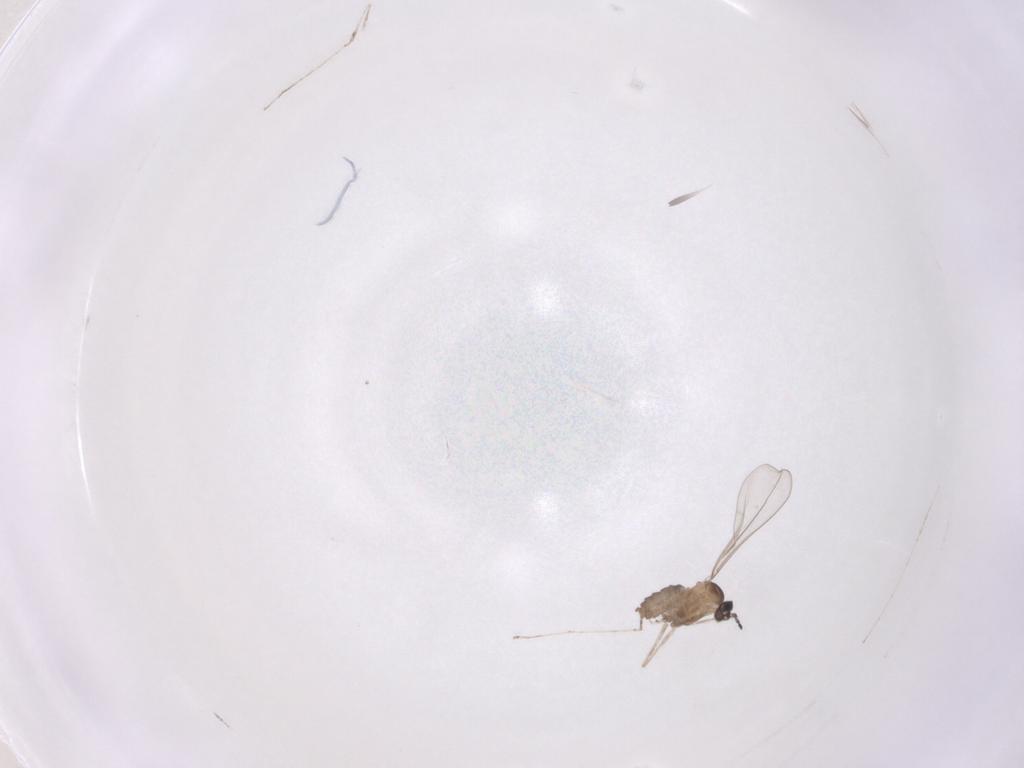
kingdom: Animalia
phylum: Arthropoda
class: Insecta
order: Diptera
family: Cecidomyiidae
